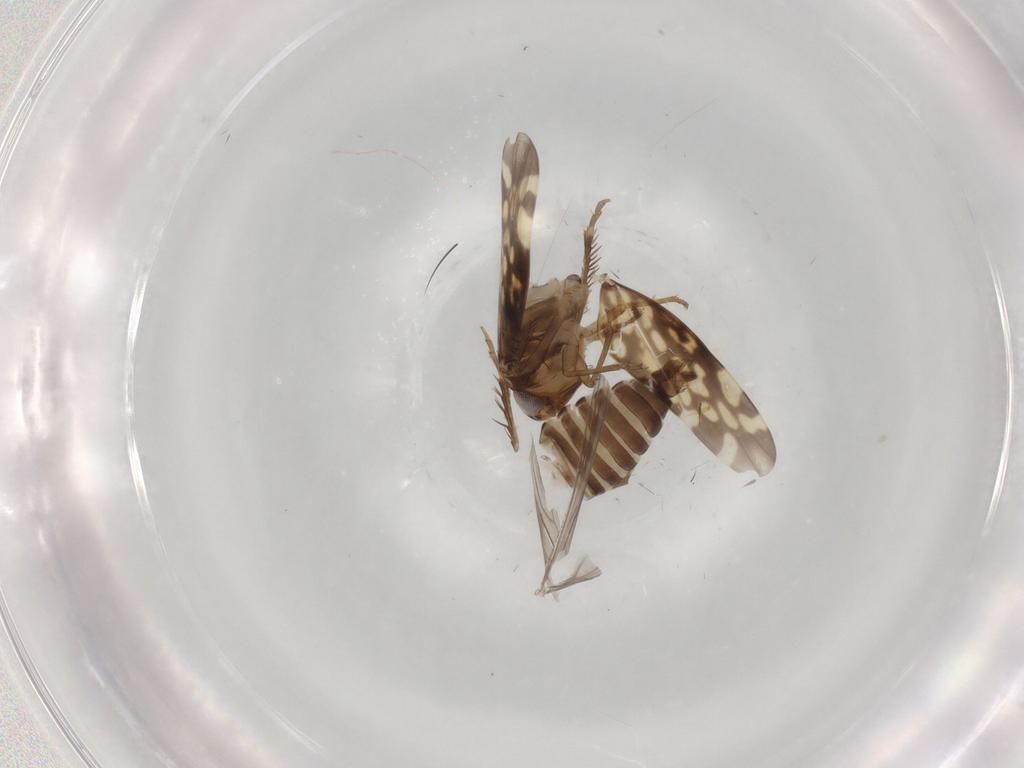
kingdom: Animalia
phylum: Arthropoda
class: Insecta
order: Hemiptera
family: Cicadellidae
